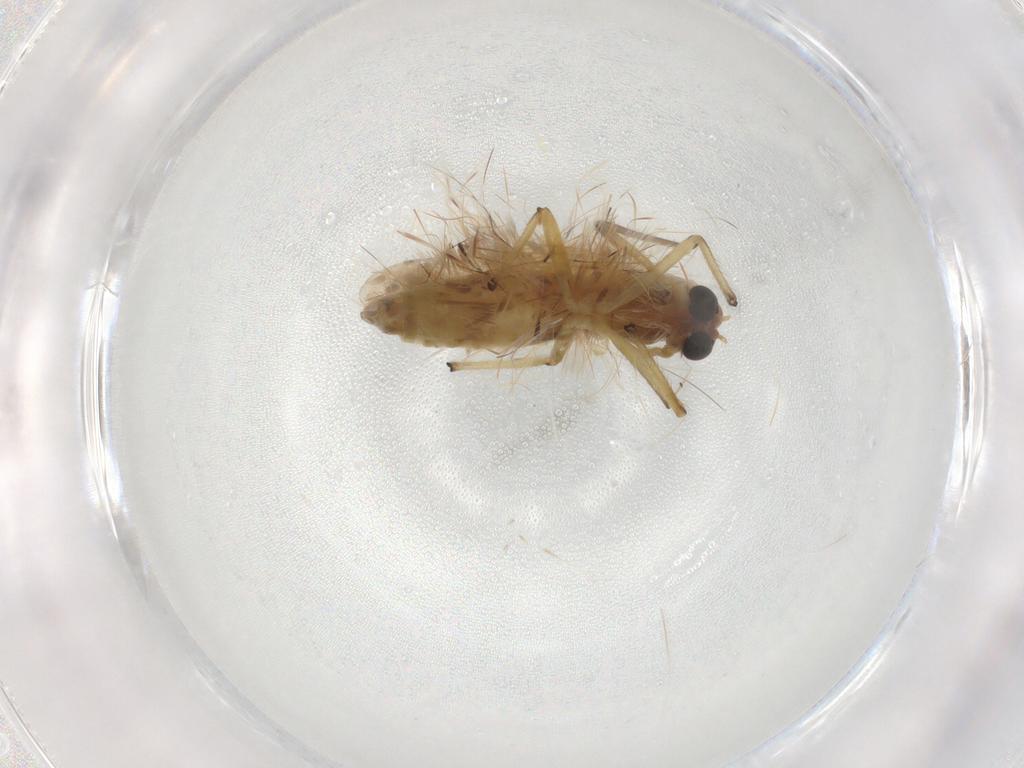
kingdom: Animalia
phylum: Arthropoda
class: Insecta
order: Diptera
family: Chironomidae
